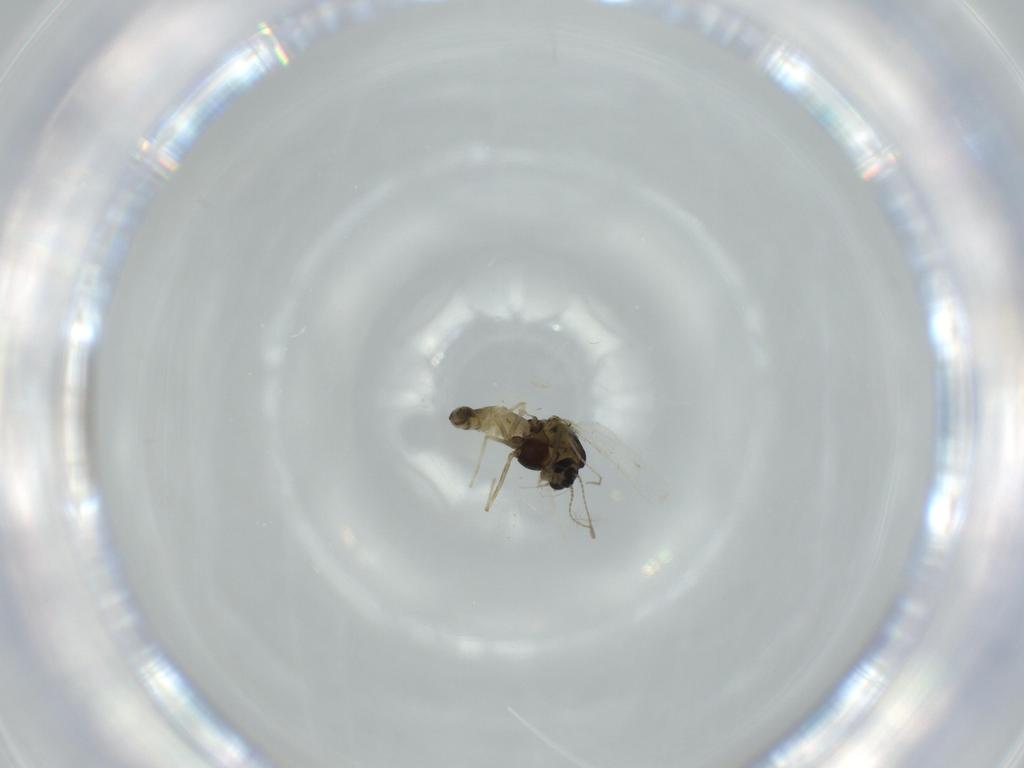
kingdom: Animalia
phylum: Arthropoda
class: Insecta
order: Diptera
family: Chironomidae
